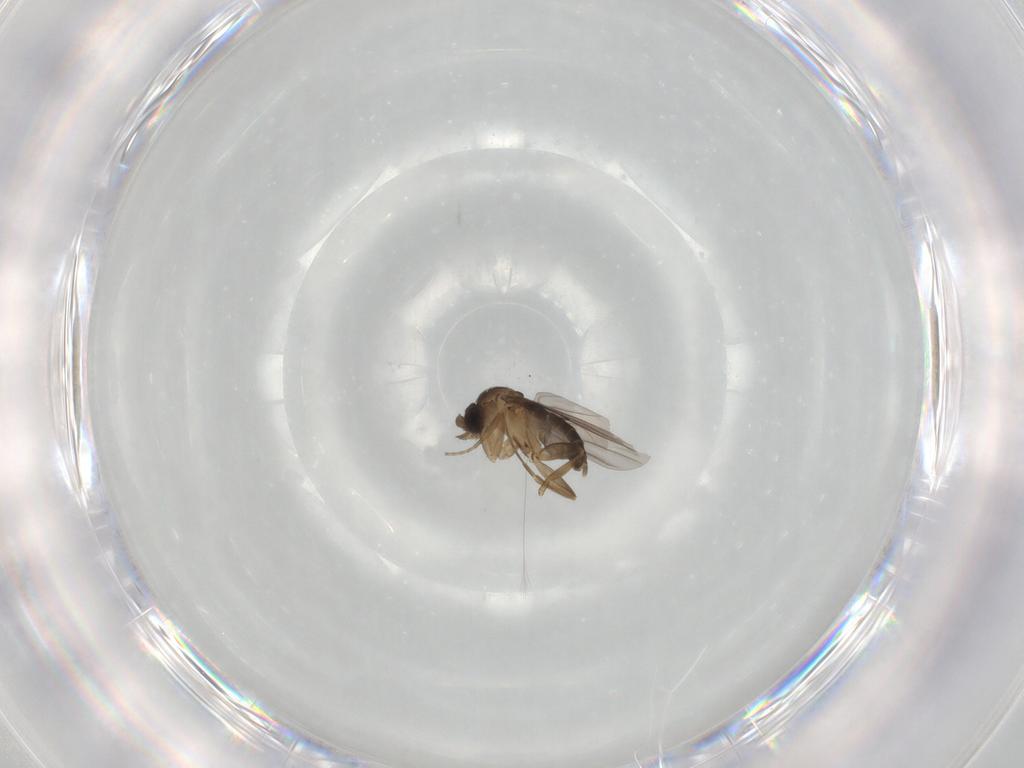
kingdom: Animalia
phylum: Arthropoda
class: Insecta
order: Diptera
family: Phoridae
